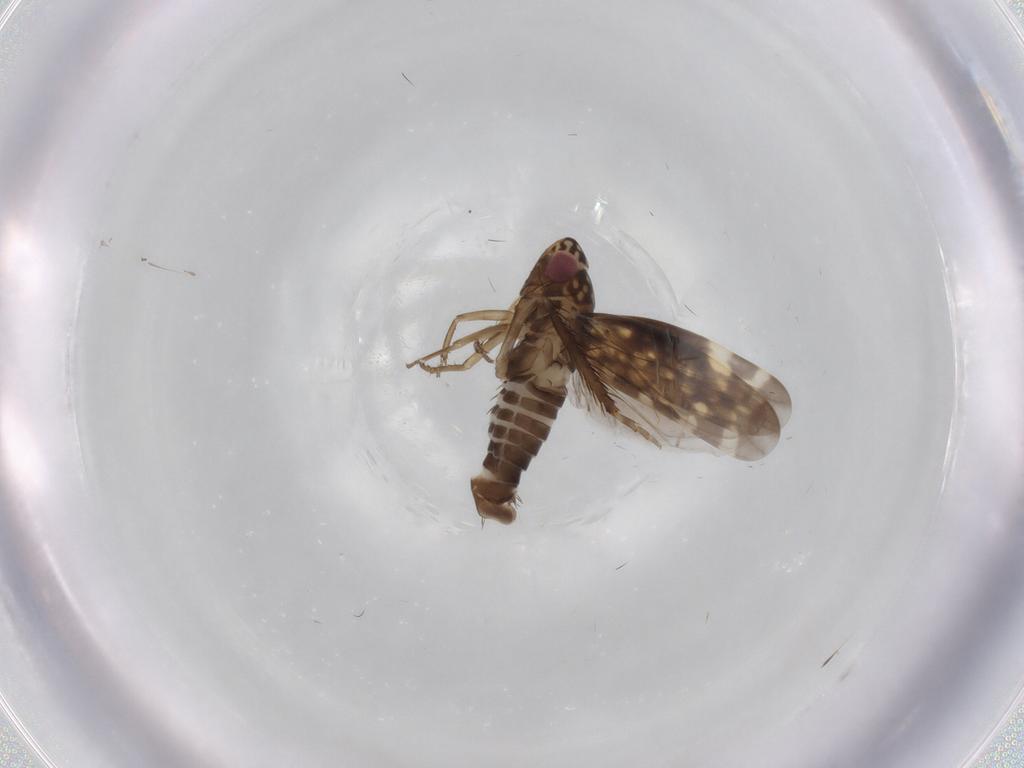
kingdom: Animalia
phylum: Arthropoda
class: Insecta
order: Hemiptera
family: Cicadellidae
